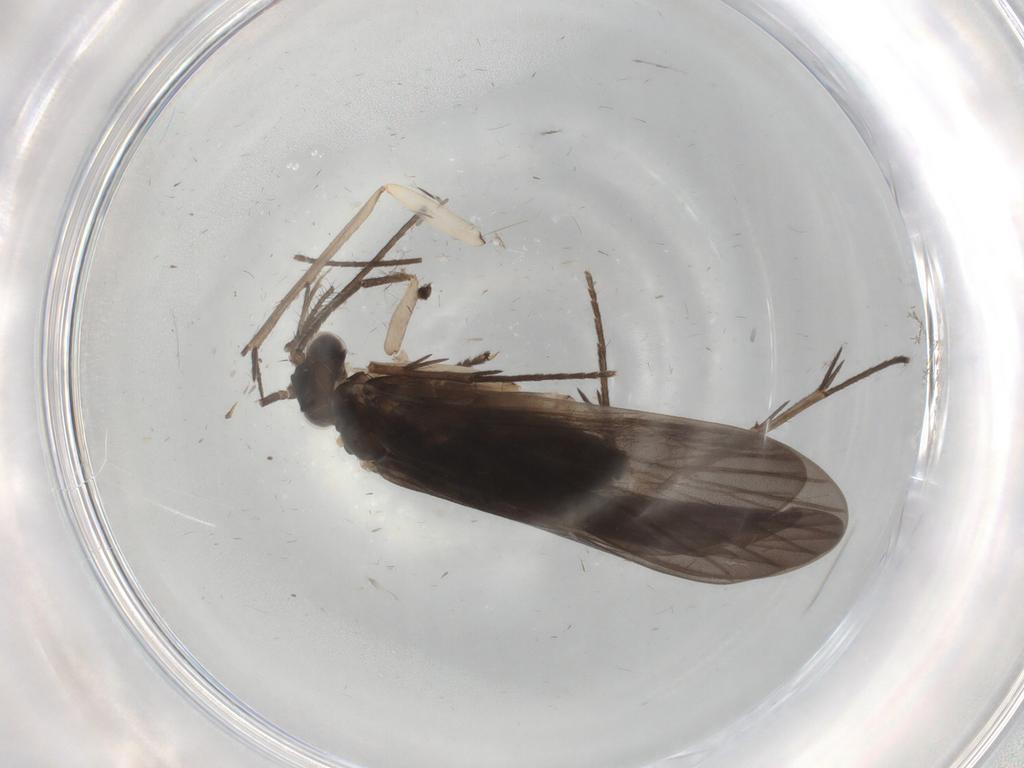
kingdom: Animalia
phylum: Arthropoda
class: Insecta
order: Trichoptera
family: Philopotamidae
